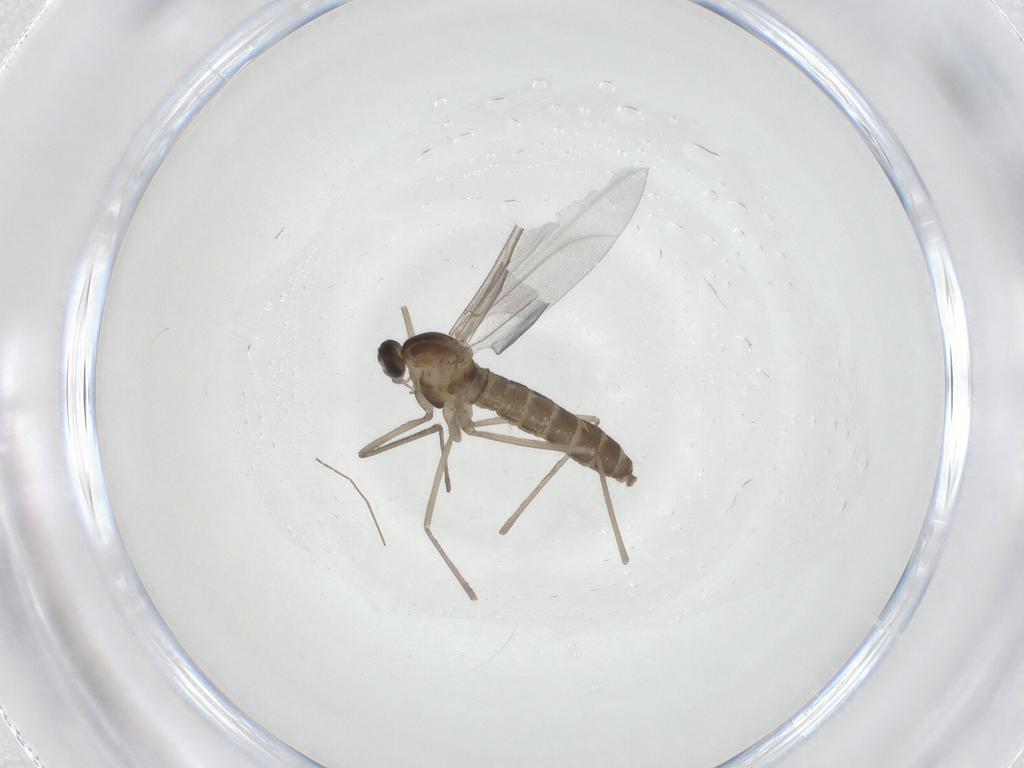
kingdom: Animalia
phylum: Arthropoda
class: Insecta
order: Diptera
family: Cecidomyiidae
